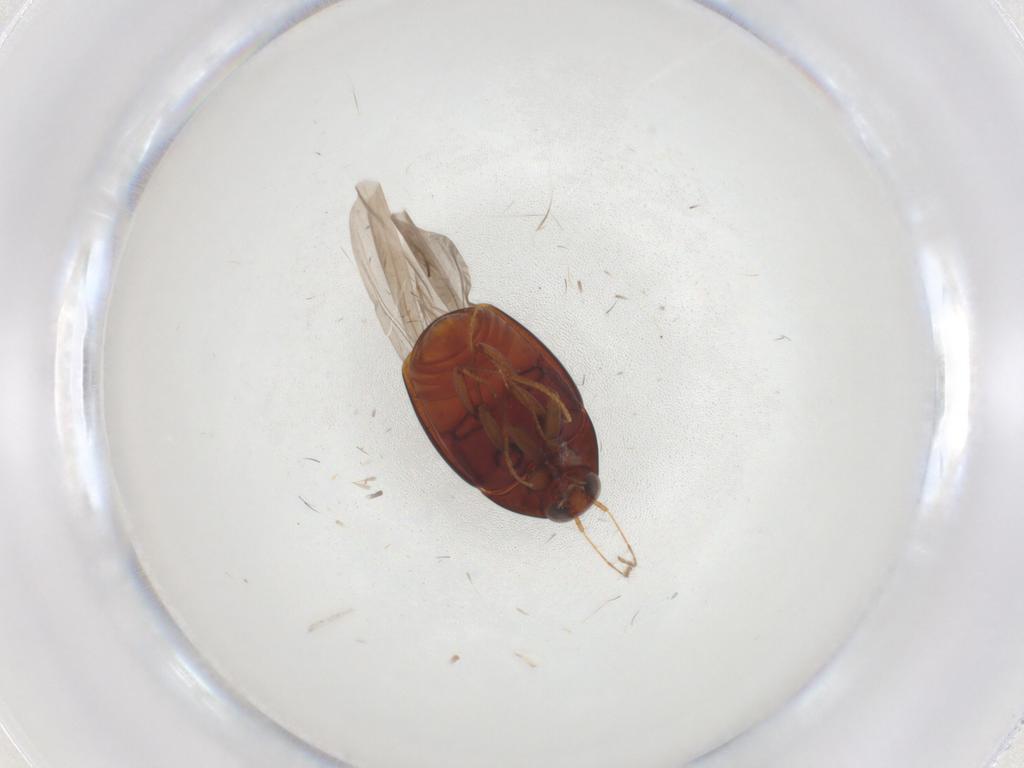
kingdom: Animalia
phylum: Arthropoda
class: Insecta
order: Coleoptera
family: Staphylinidae
